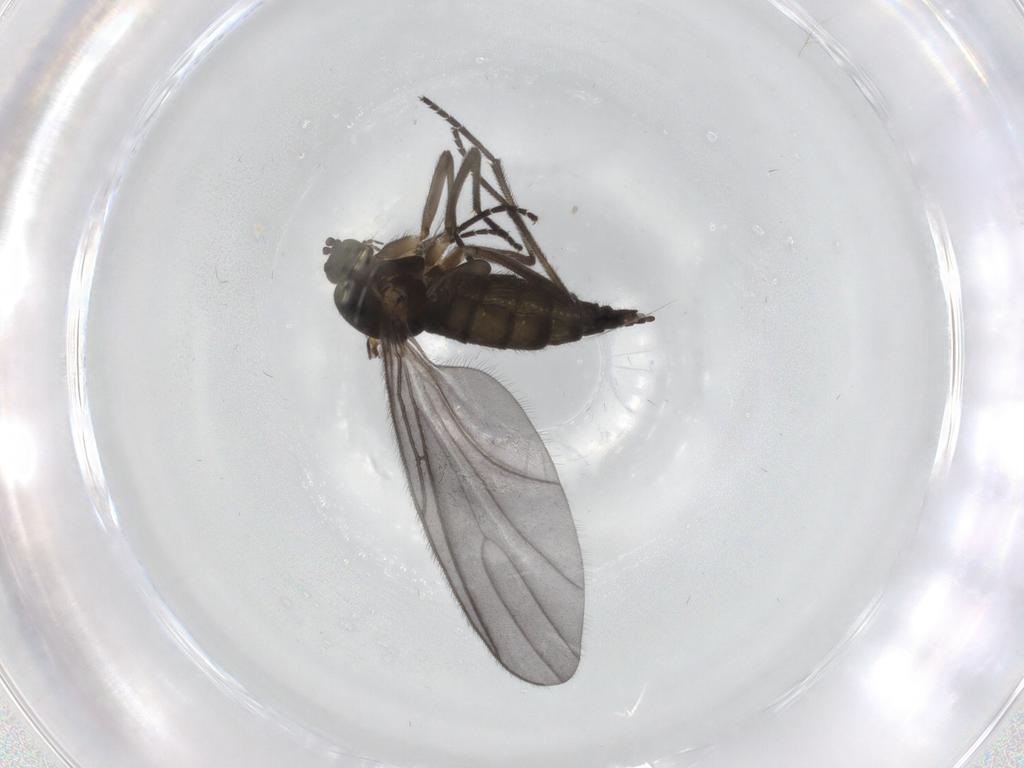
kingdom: Animalia
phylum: Arthropoda
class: Insecta
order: Diptera
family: Sciaridae
